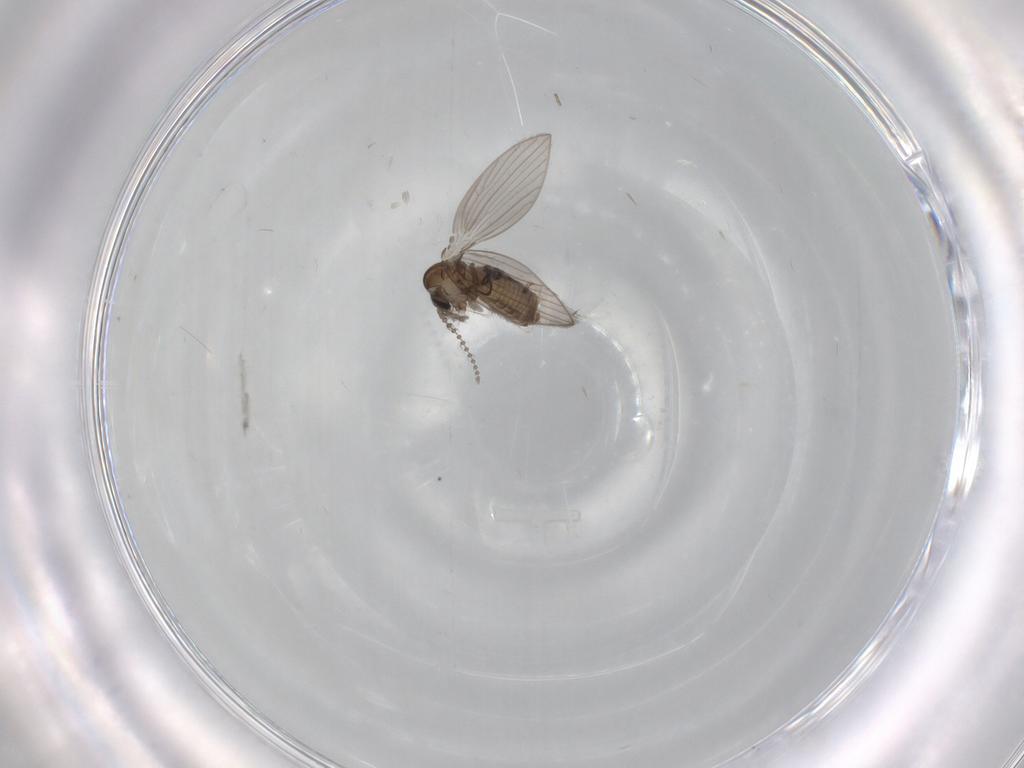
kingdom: Animalia
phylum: Arthropoda
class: Insecta
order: Diptera
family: Psychodidae
